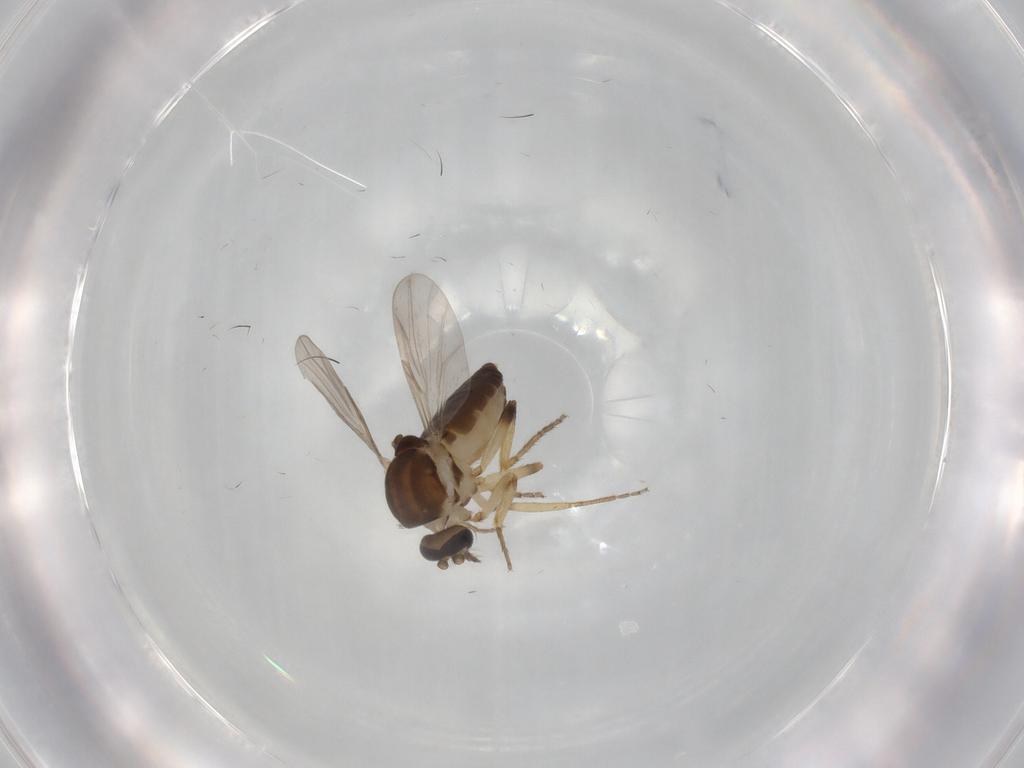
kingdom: Animalia
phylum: Arthropoda
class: Insecta
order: Diptera
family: Ceratopogonidae
